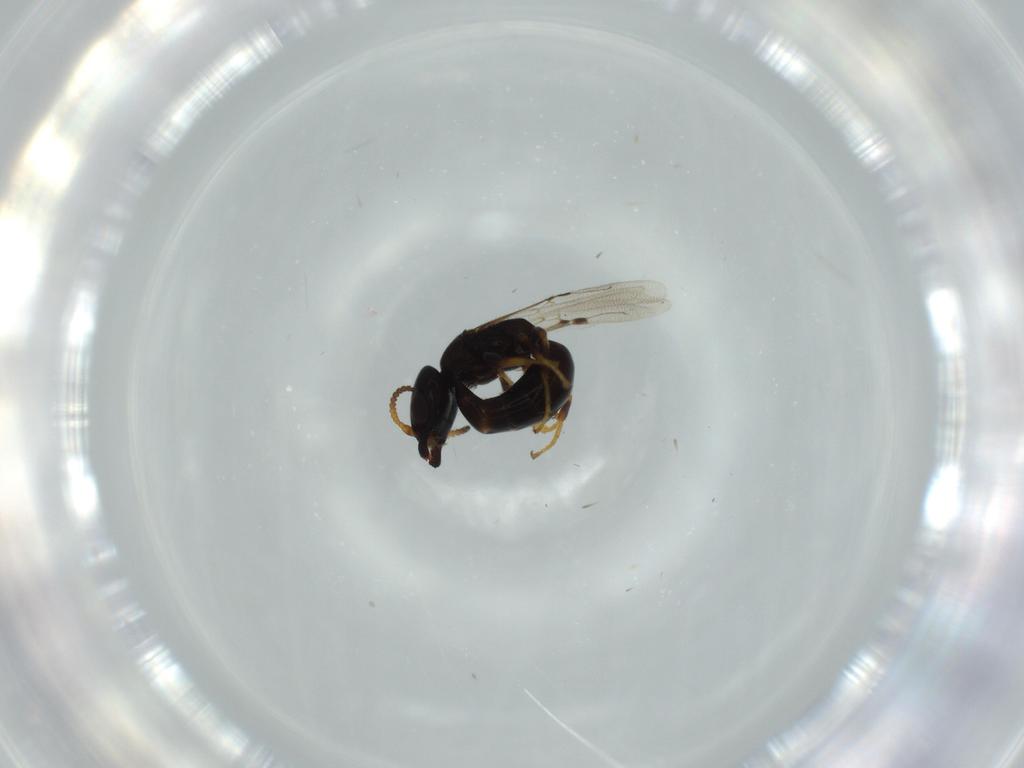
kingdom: Animalia
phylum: Arthropoda
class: Insecta
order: Hymenoptera
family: Bethylidae
